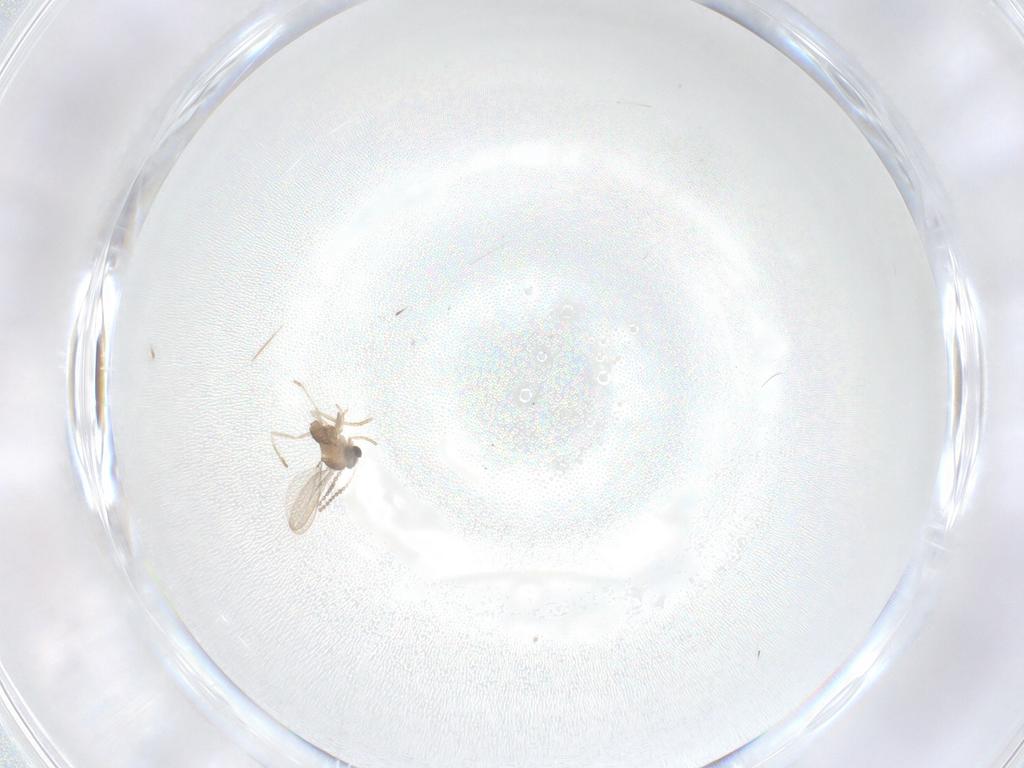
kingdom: Animalia
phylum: Arthropoda
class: Insecta
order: Diptera
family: Cecidomyiidae
